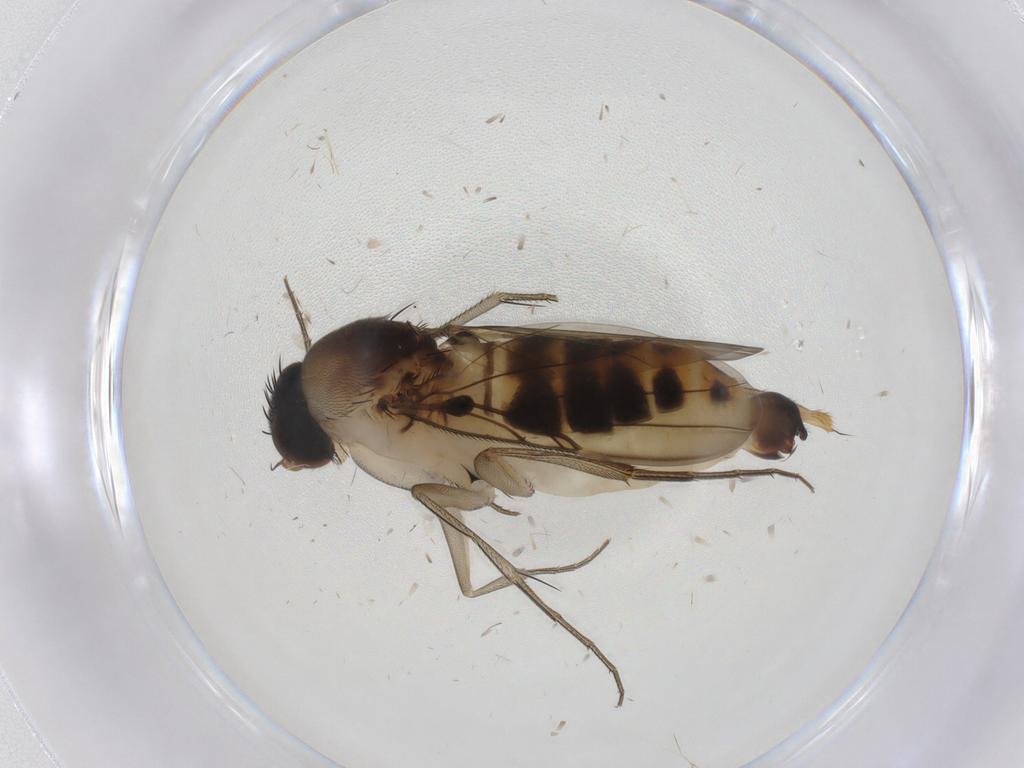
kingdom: Animalia
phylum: Arthropoda
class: Insecta
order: Diptera
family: Phoridae
